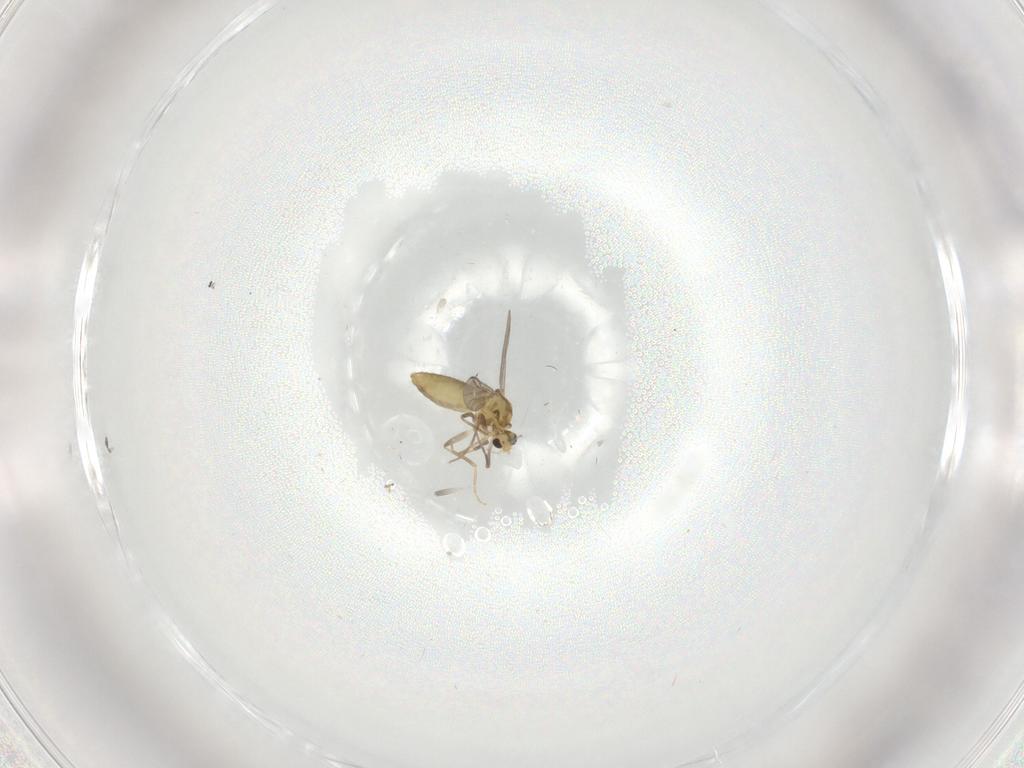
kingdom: Animalia
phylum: Arthropoda
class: Insecta
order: Diptera
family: Chironomidae
